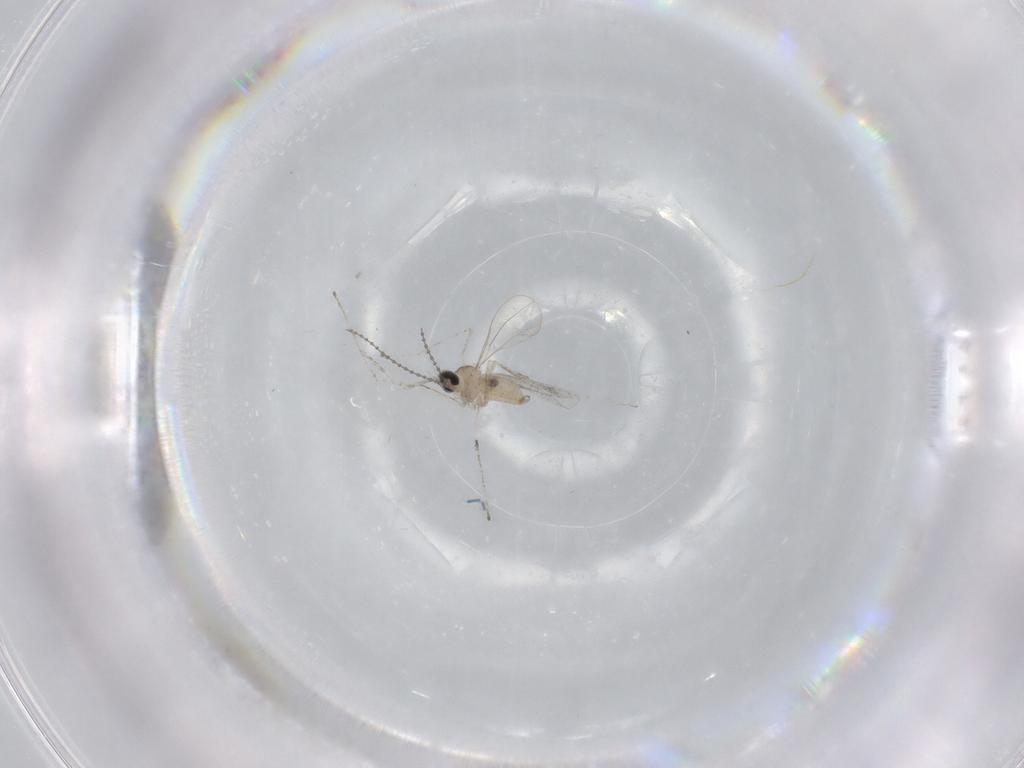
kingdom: Animalia
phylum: Arthropoda
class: Insecta
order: Diptera
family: Cecidomyiidae
